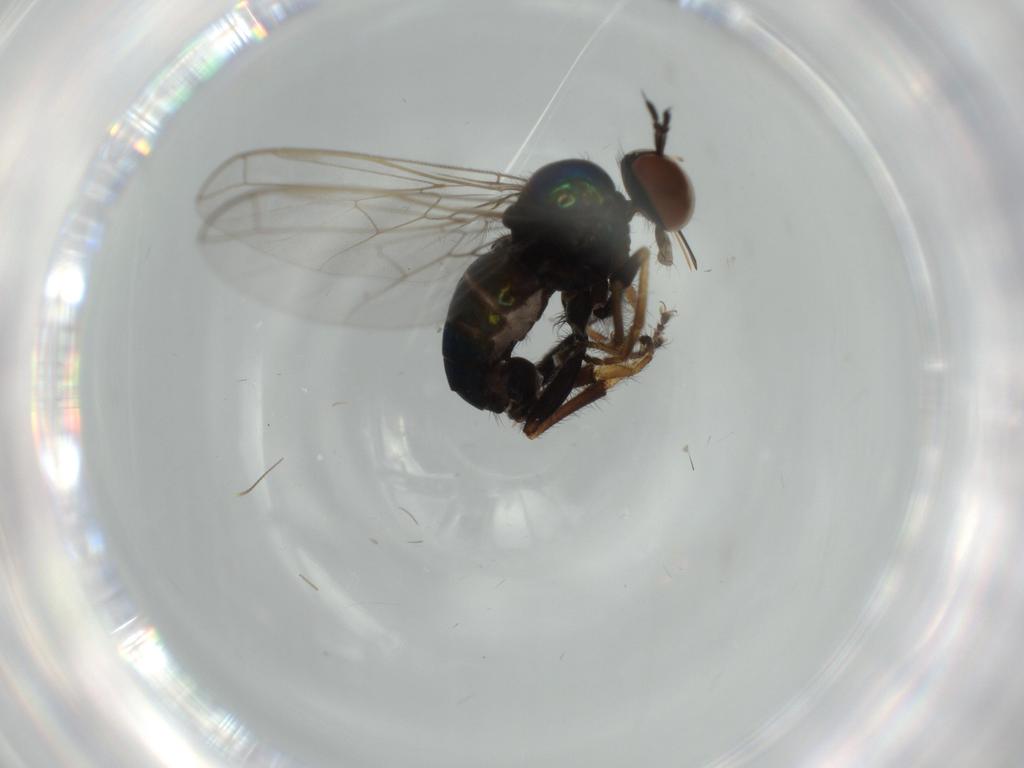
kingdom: Animalia
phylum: Arthropoda
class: Insecta
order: Diptera
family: Empididae
